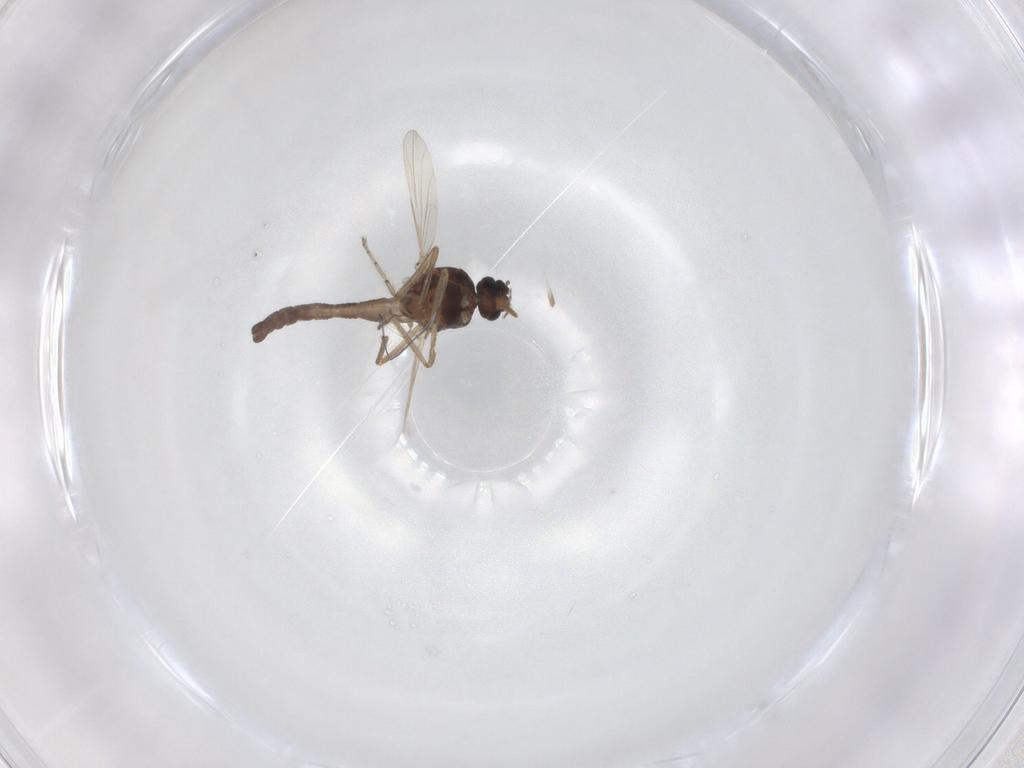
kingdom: Animalia
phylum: Arthropoda
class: Insecta
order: Diptera
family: Ceratopogonidae
